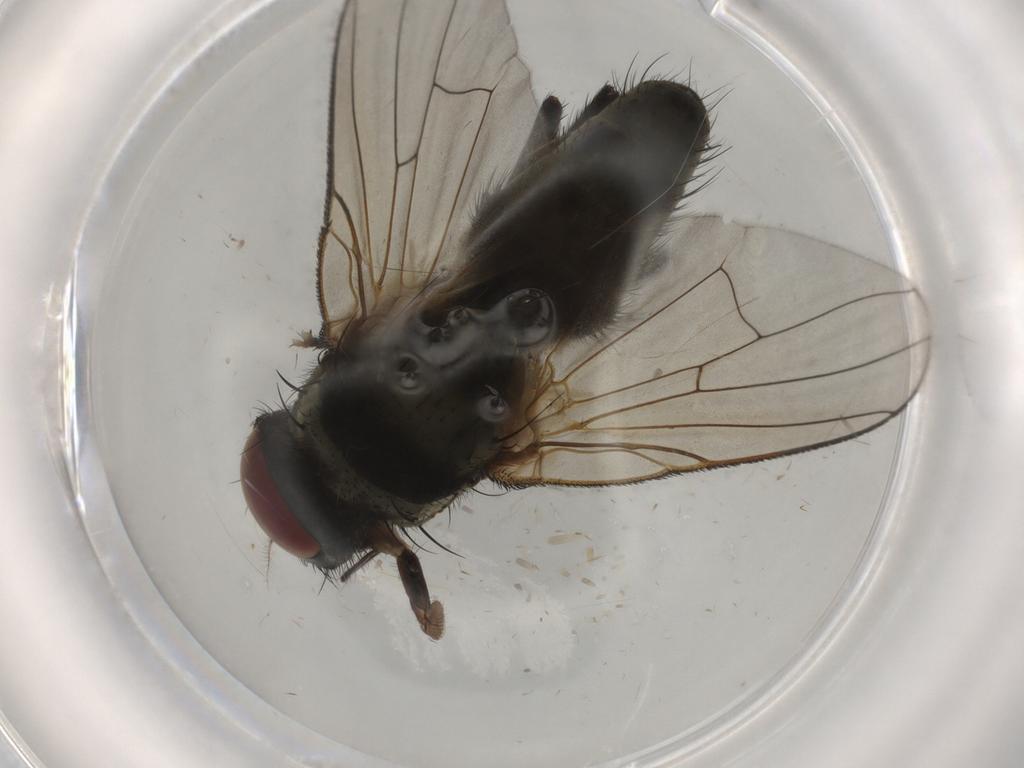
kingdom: Animalia
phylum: Arthropoda
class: Insecta
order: Diptera
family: Muscidae
